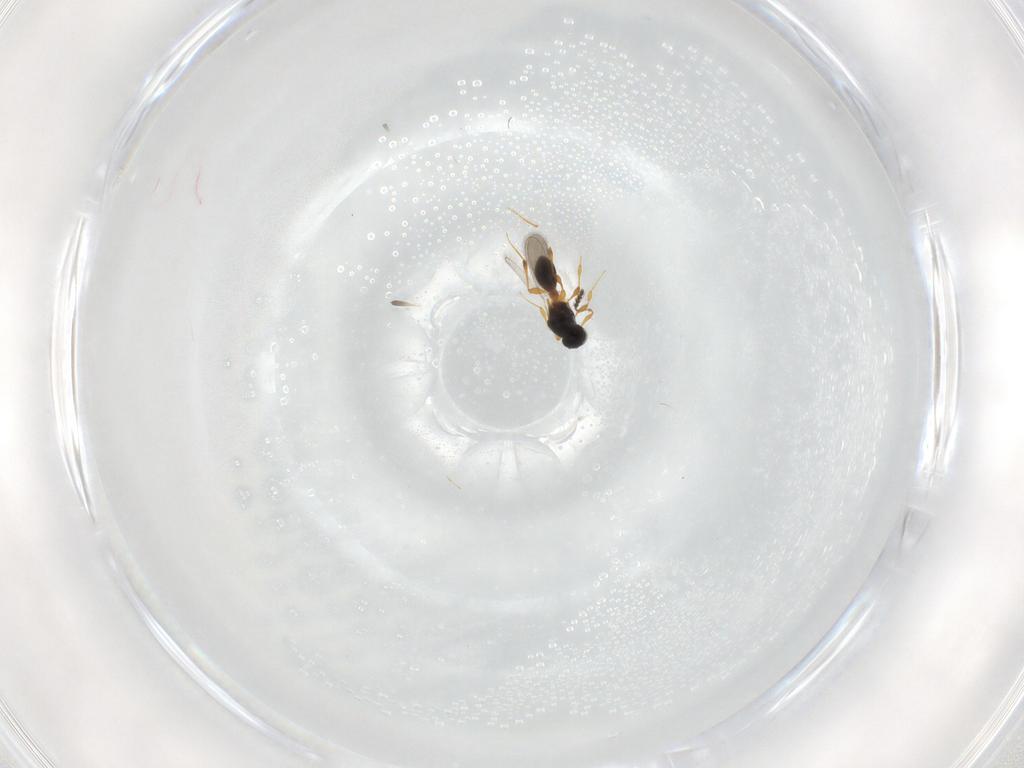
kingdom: Animalia
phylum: Arthropoda
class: Insecta
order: Hymenoptera
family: Platygastridae
